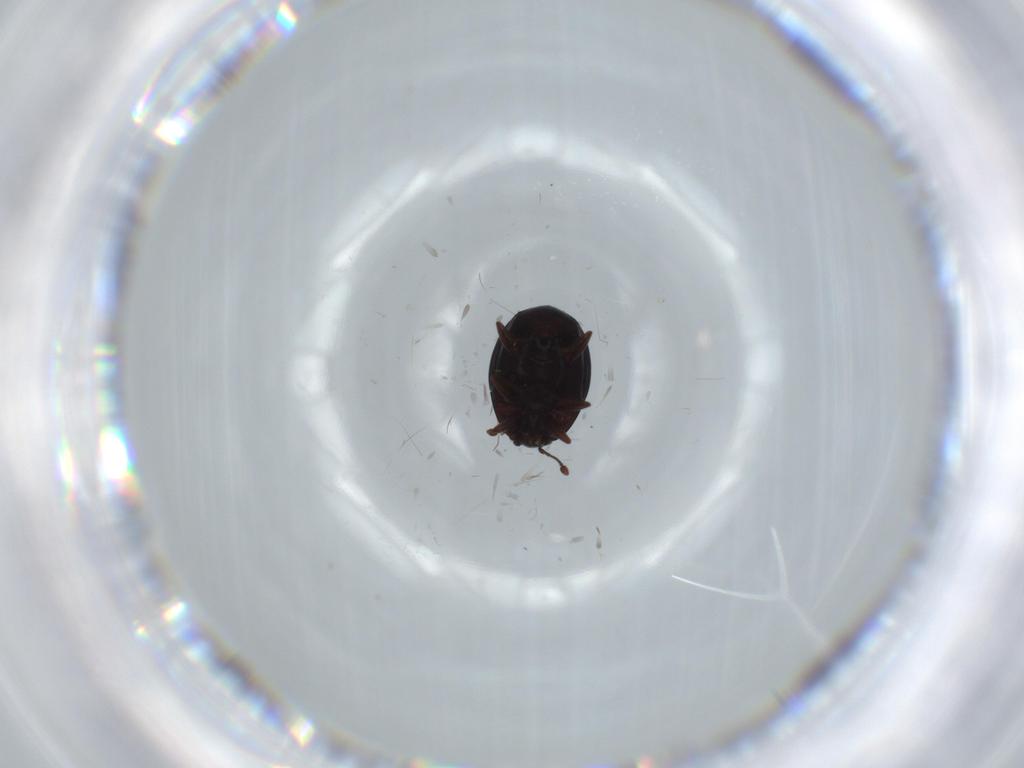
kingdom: Animalia
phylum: Arthropoda
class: Insecta
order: Coleoptera
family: Histeridae
